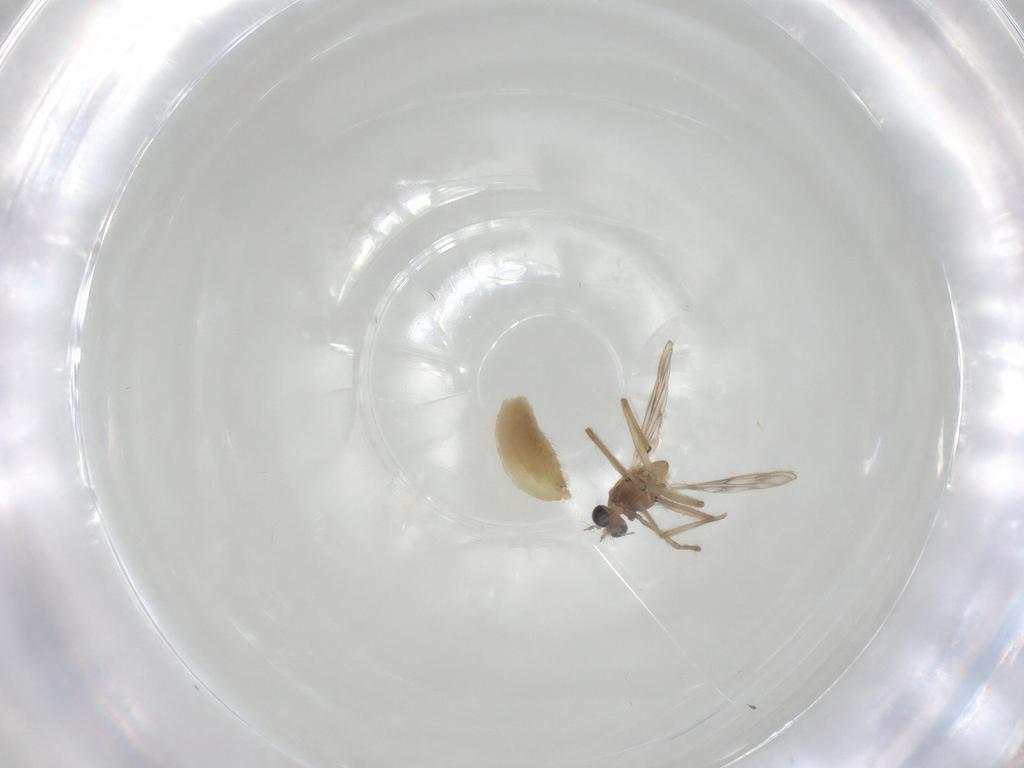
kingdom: Animalia
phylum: Arthropoda
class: Insecta
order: Diptera
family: Chironomidae
